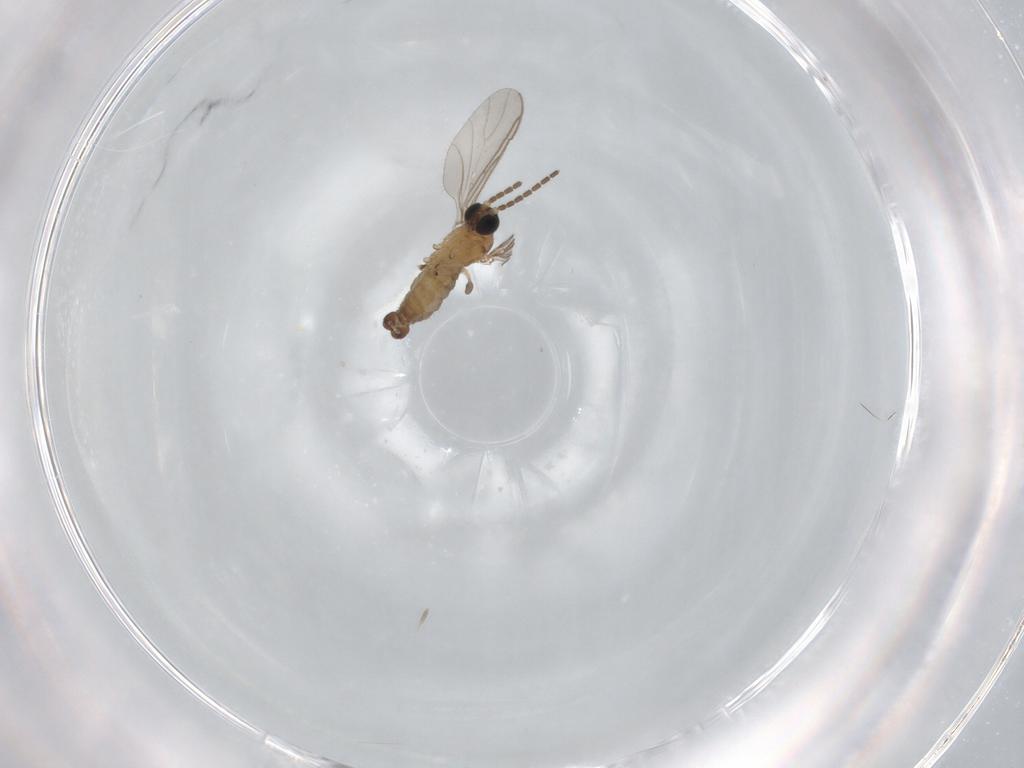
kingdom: Animalia
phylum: Arthropoda
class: Insecta
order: Diptera
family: Sciaridae
